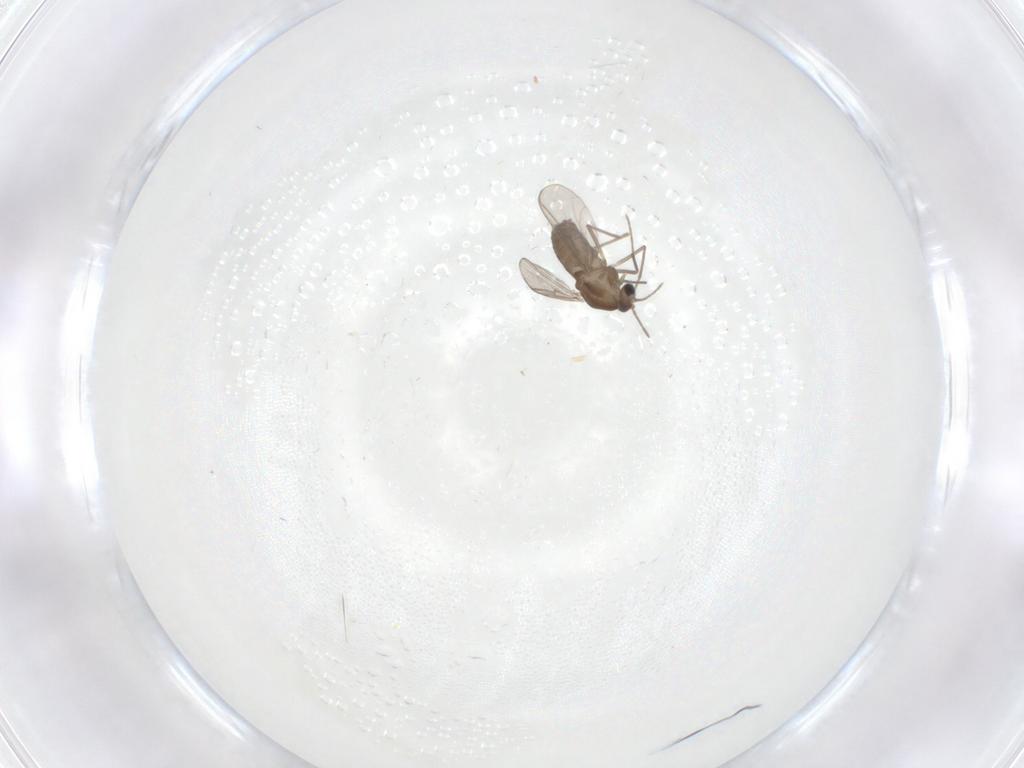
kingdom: Animalia
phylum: Arthropoda
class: Insecta
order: Diptera
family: Chironomidae
